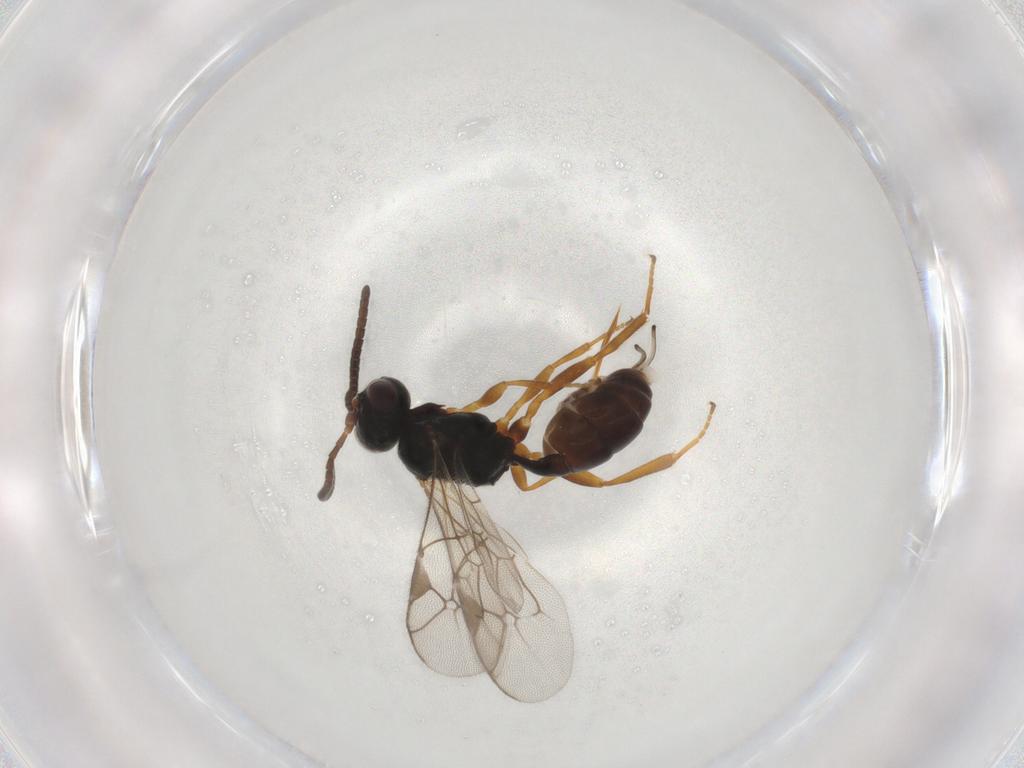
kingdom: Animalia
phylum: Arthropoda
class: Insecta
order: Hymenoptera
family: Ichneumonidae
